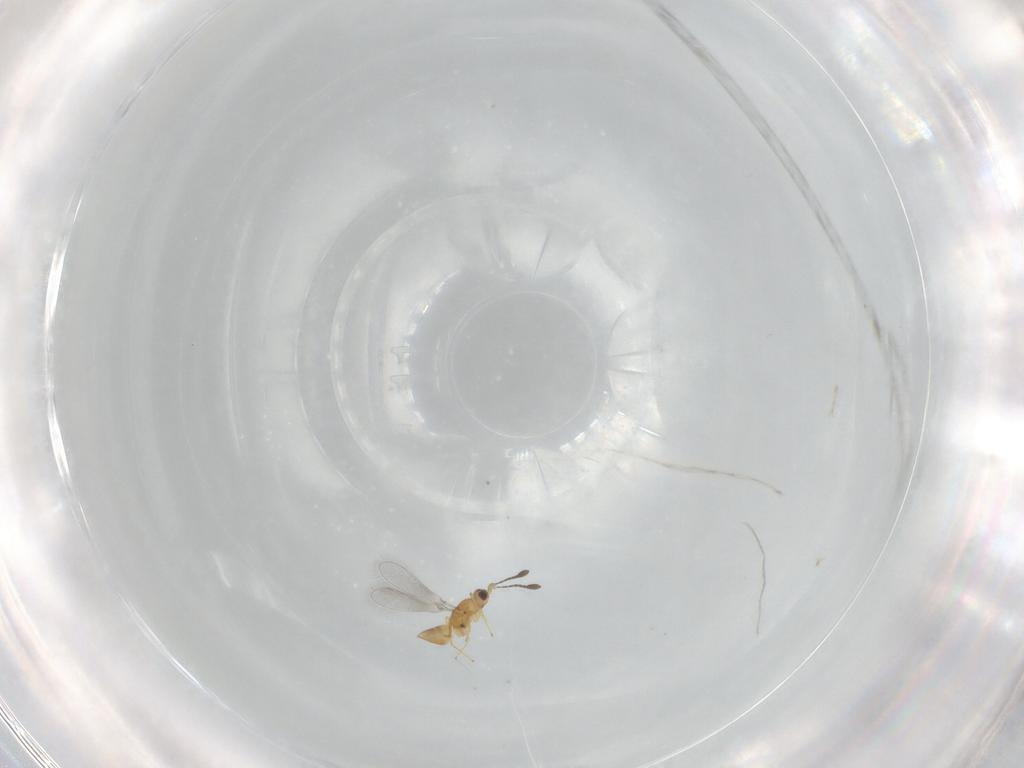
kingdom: Animalia
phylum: Arthropoda
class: Insecta
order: Hymenoptera
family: Mymaridae
